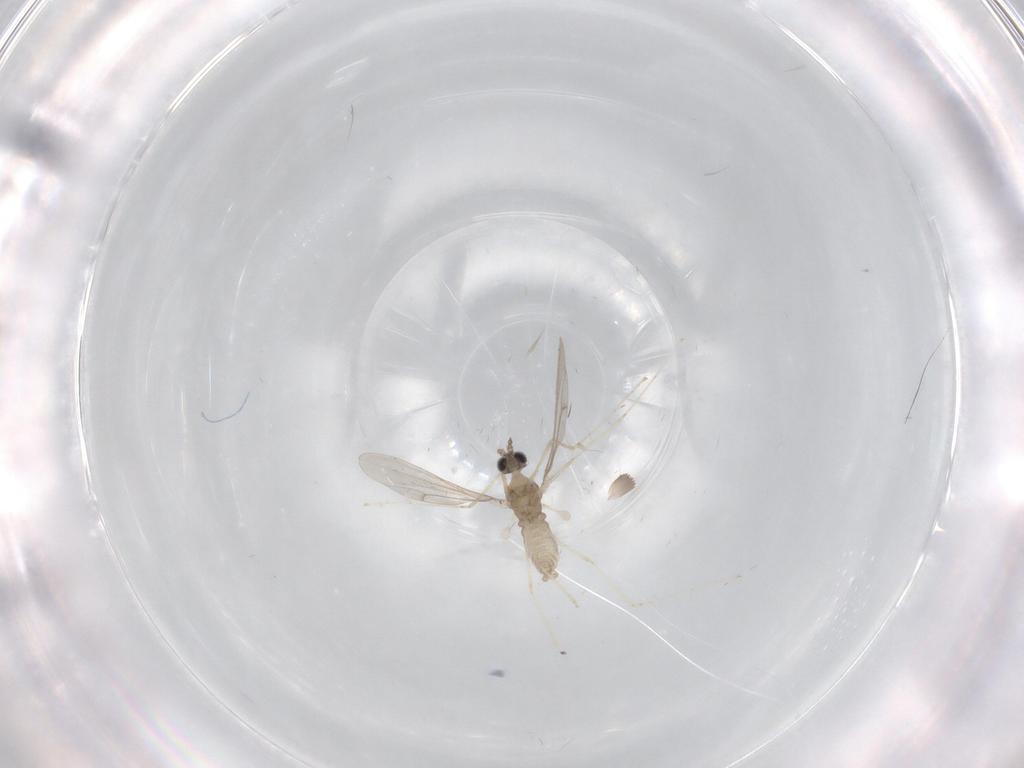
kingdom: Animalia
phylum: Arthropoda
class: Insecta
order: Diptera
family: Cecidomyiidae
